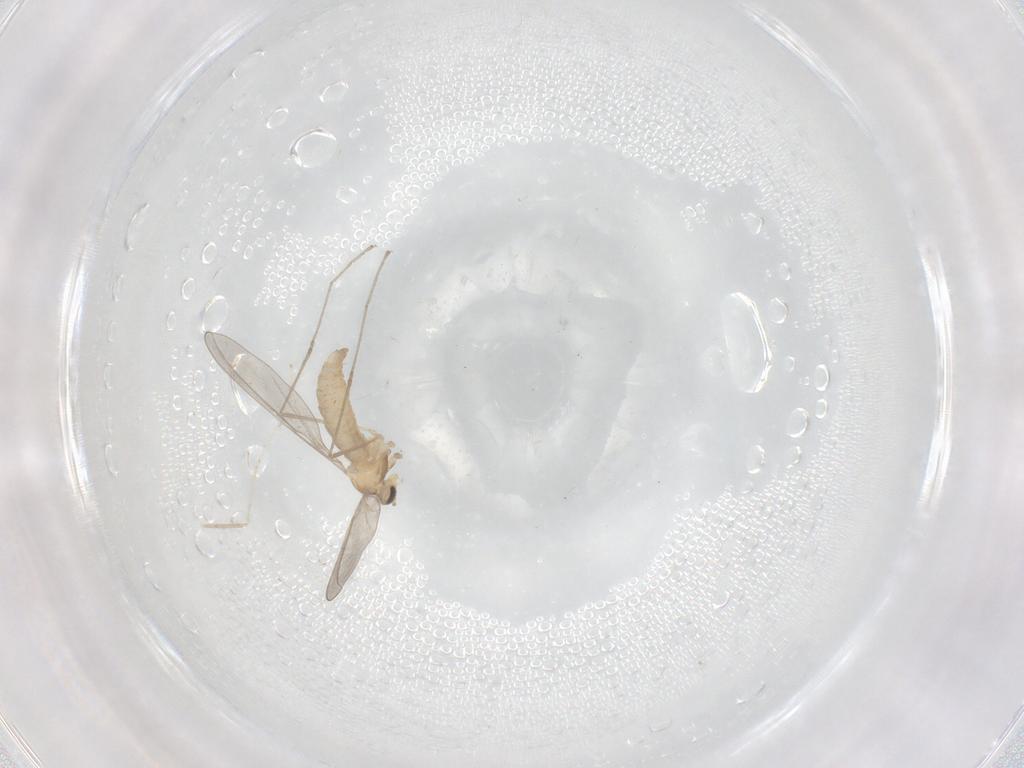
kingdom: Animalia
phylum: Arthropoda
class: Insecta
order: Diptera
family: Cecidomyiidae
